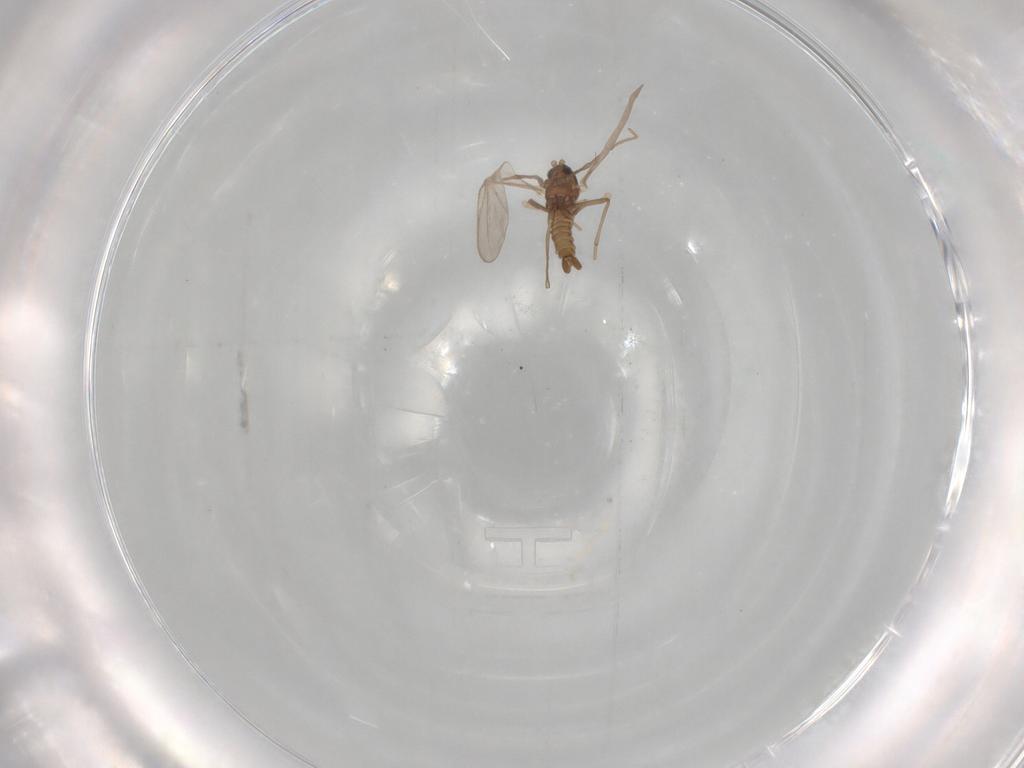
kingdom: Animalia
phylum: Arthropoda
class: Insecta
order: Diptera
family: Cecidomyiidae
